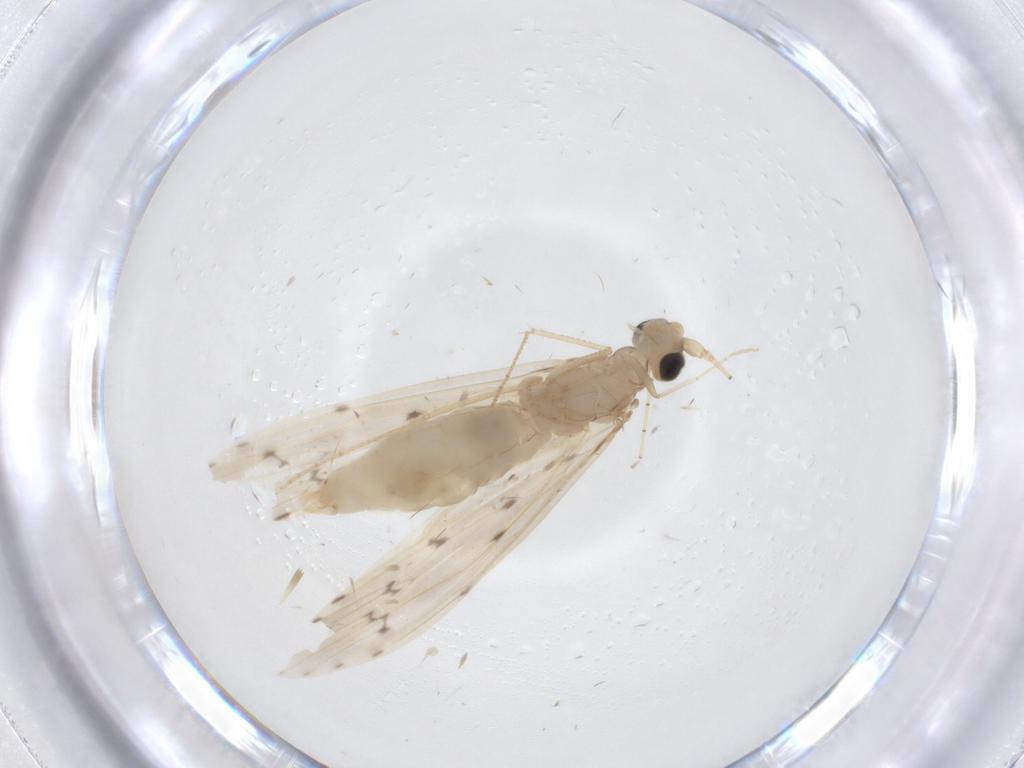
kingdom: Animalia
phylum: Arthropoda
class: Insecta
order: Trichoptera
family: Leptoceridae
